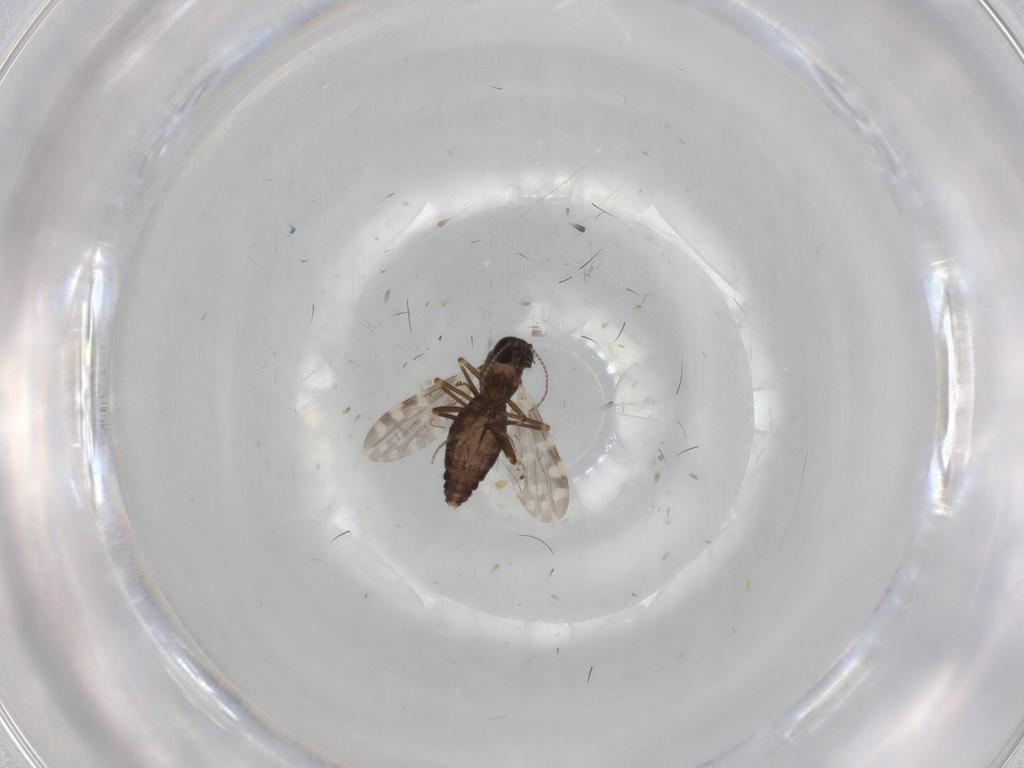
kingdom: Animalia
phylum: Arthropoda
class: Insecta
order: Diptera
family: Ceratopogonidae
